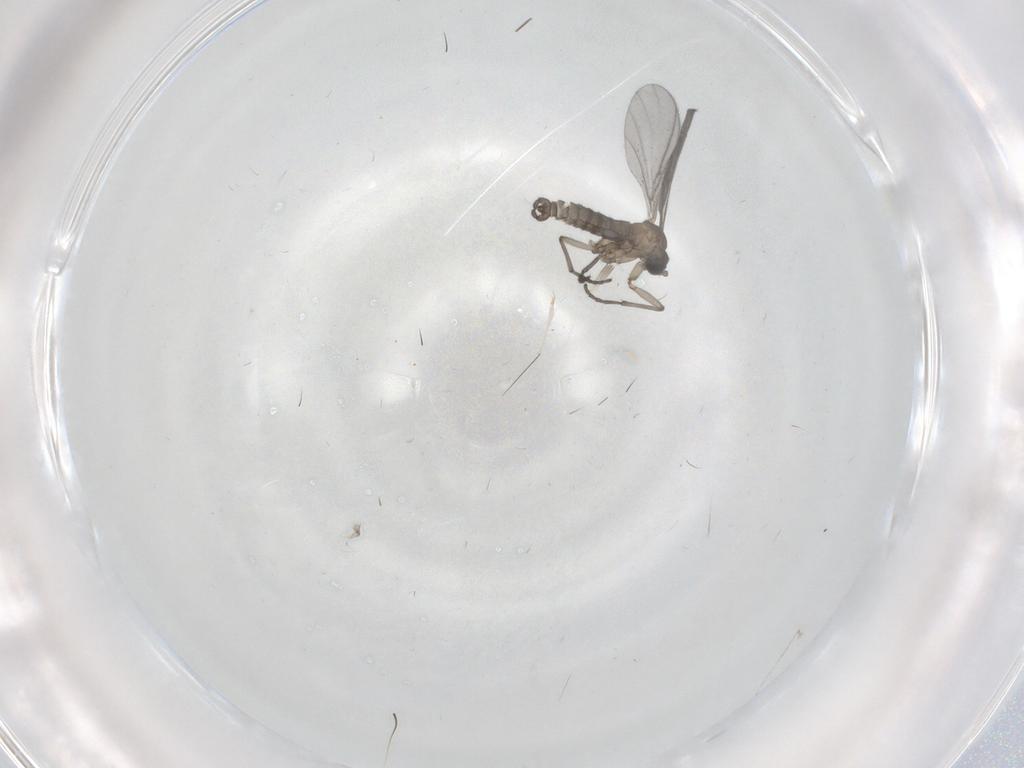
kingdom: Animalia
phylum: Arthropoda
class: Insecta
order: Diptera
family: Sciaridae
